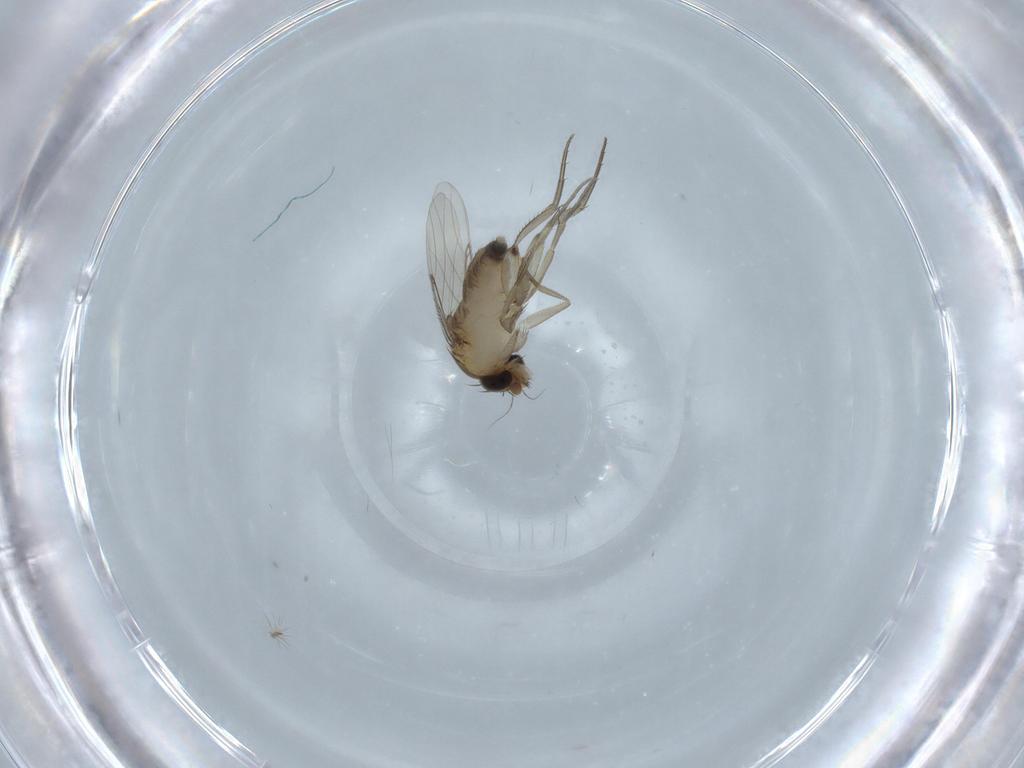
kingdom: Animalia
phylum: Arthropoda
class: Insecta
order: Diptera
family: Phoridae
